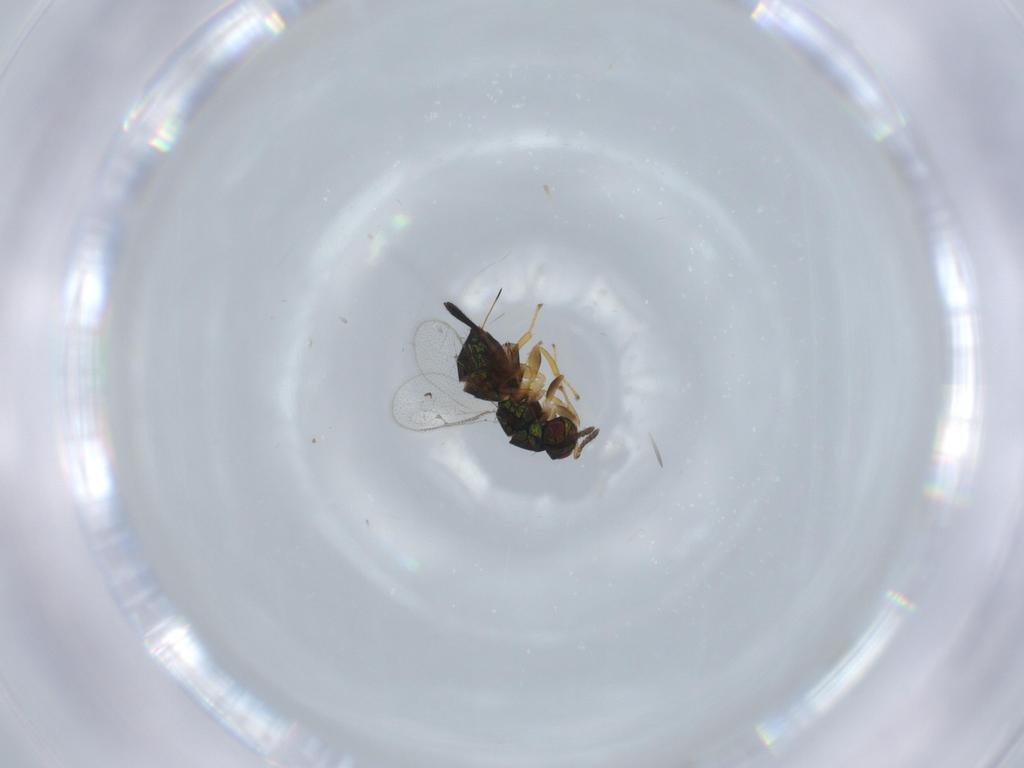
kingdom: Animalia
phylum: Arthropoda
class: Insecta
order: Hymenoptera
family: Torymidae
